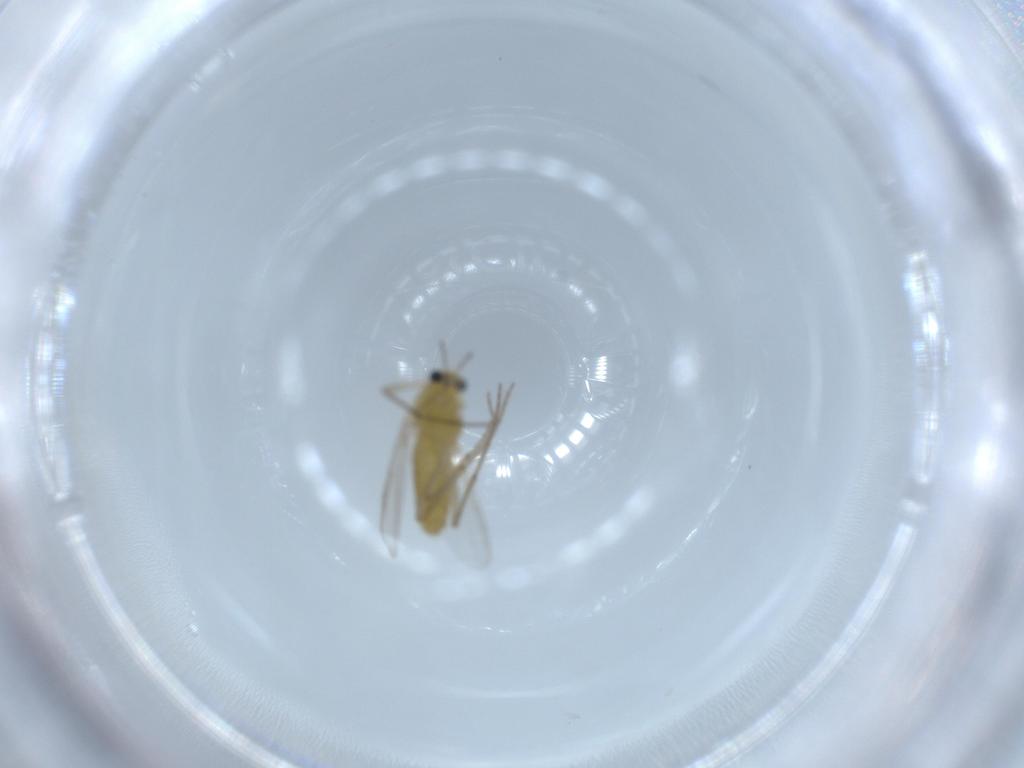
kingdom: Animalia
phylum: Arthropoda
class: Insecta
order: Diptera
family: Chironomidae
